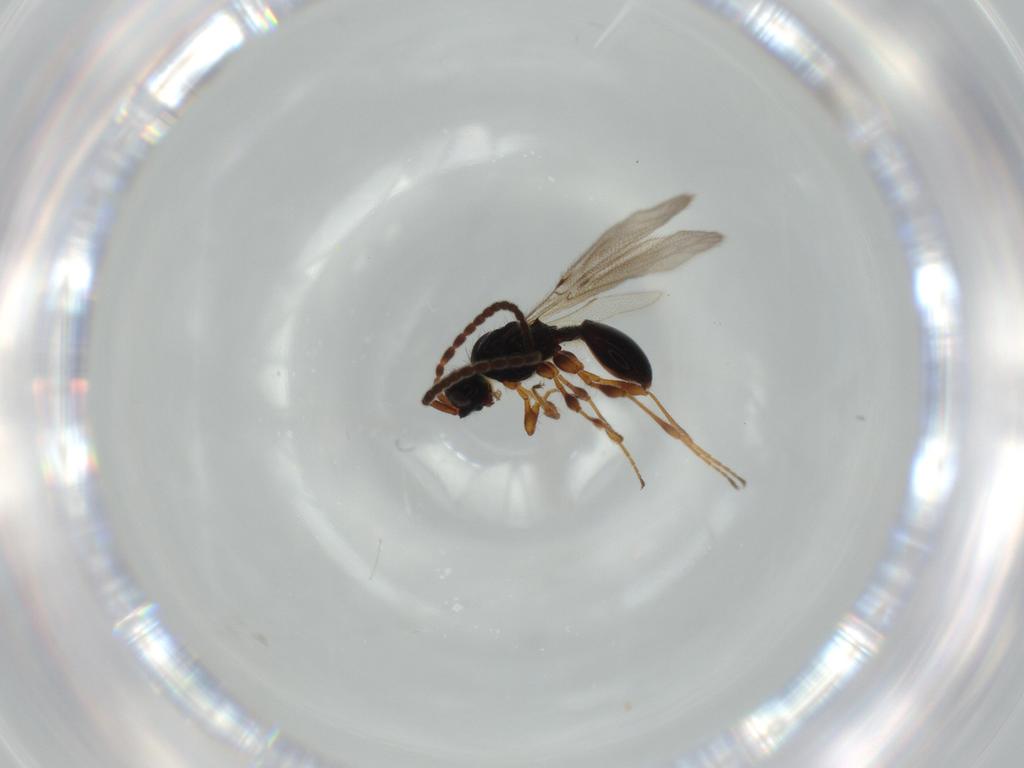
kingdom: Animalia
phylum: Arthropoda
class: Insecta
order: Hymenoptera
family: Diapriidae
